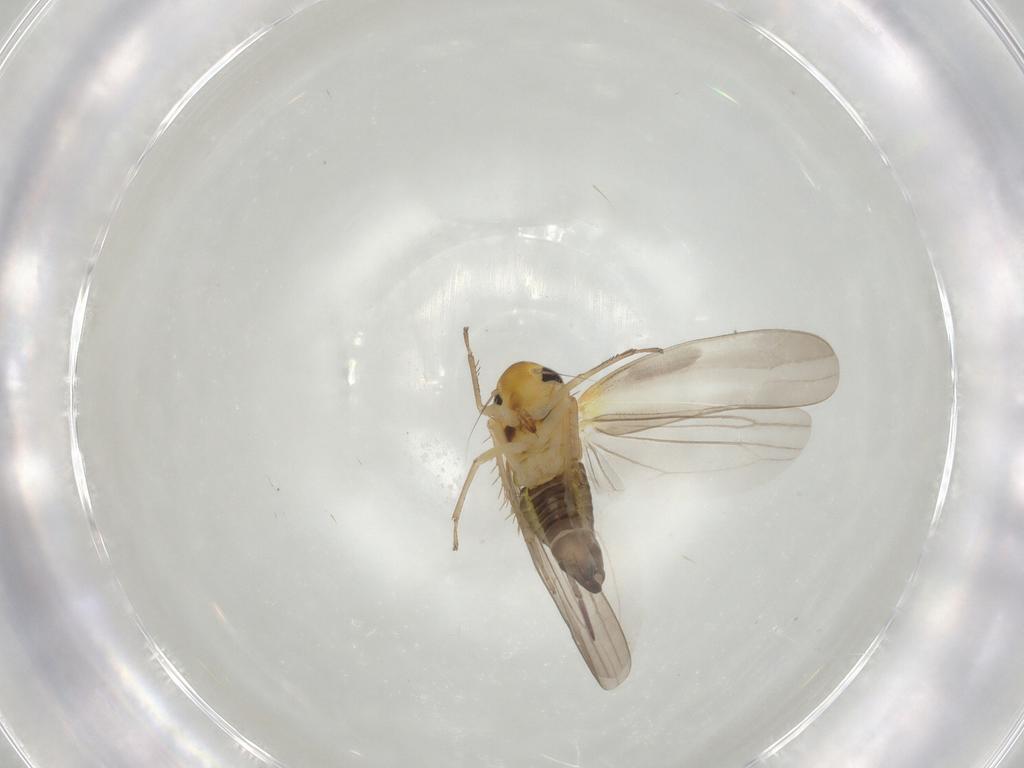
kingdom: Animalia
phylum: Arthropoda
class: Insecta
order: Hemiptera
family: Cicadellidae
